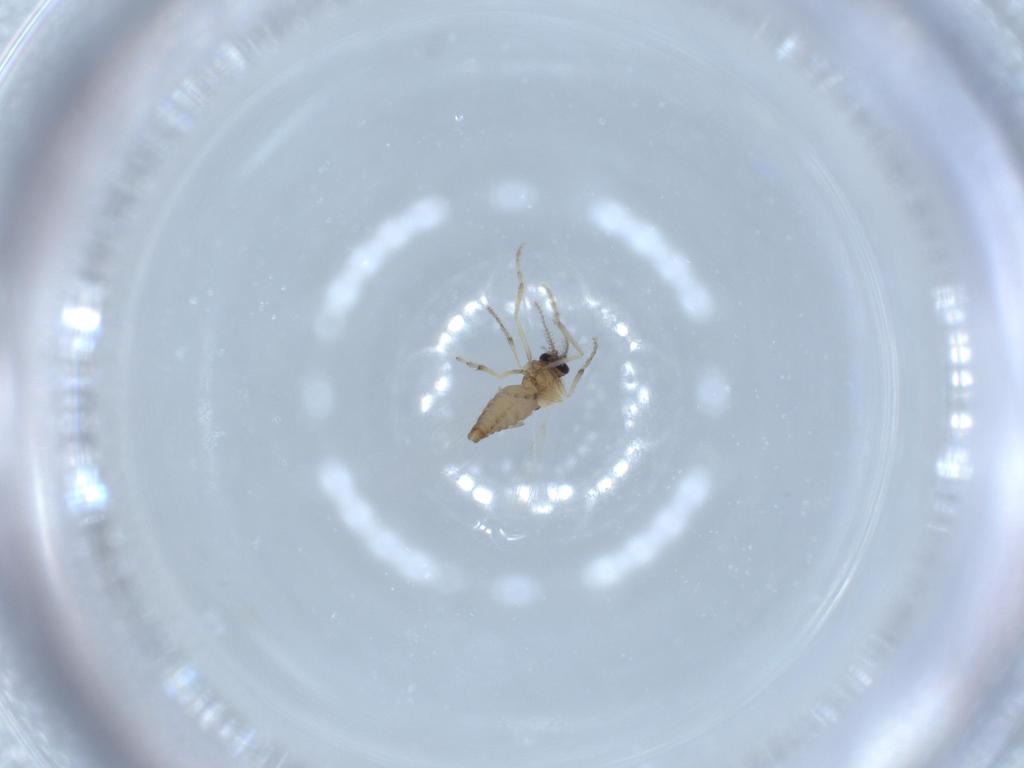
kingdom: Animalia
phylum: Arthropoda
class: Insecta
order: Diptera
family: Ceratopogonidae
